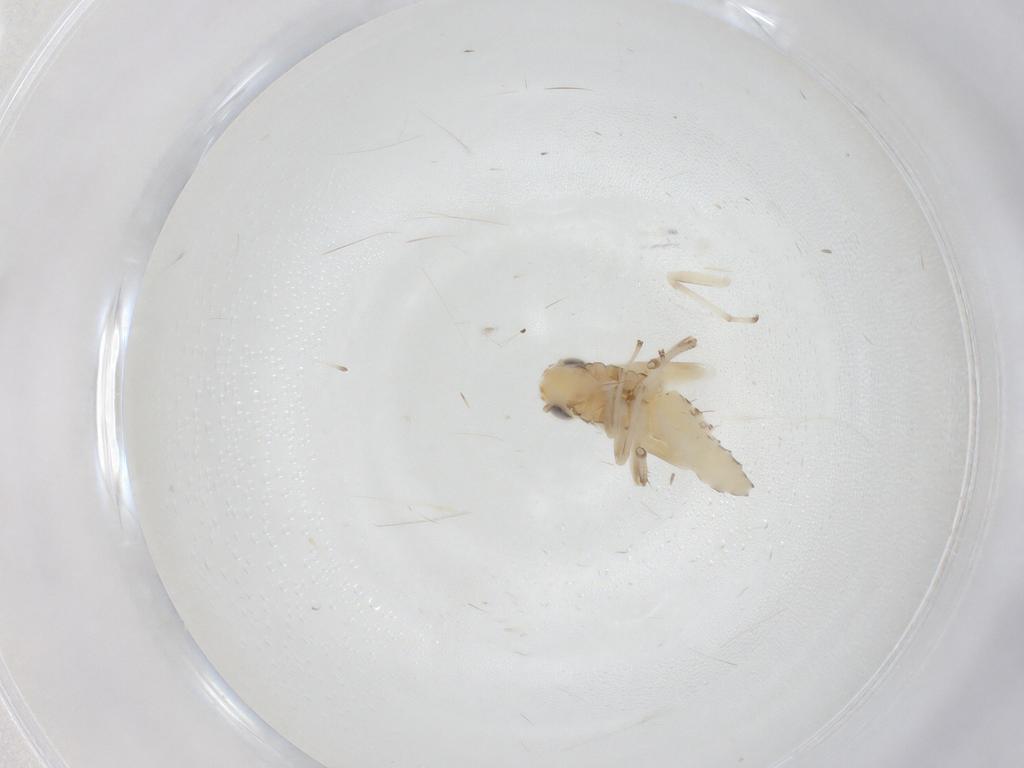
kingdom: Animalia
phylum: Arthropoda
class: Insecta
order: Hemiptera
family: Cicadellidae
